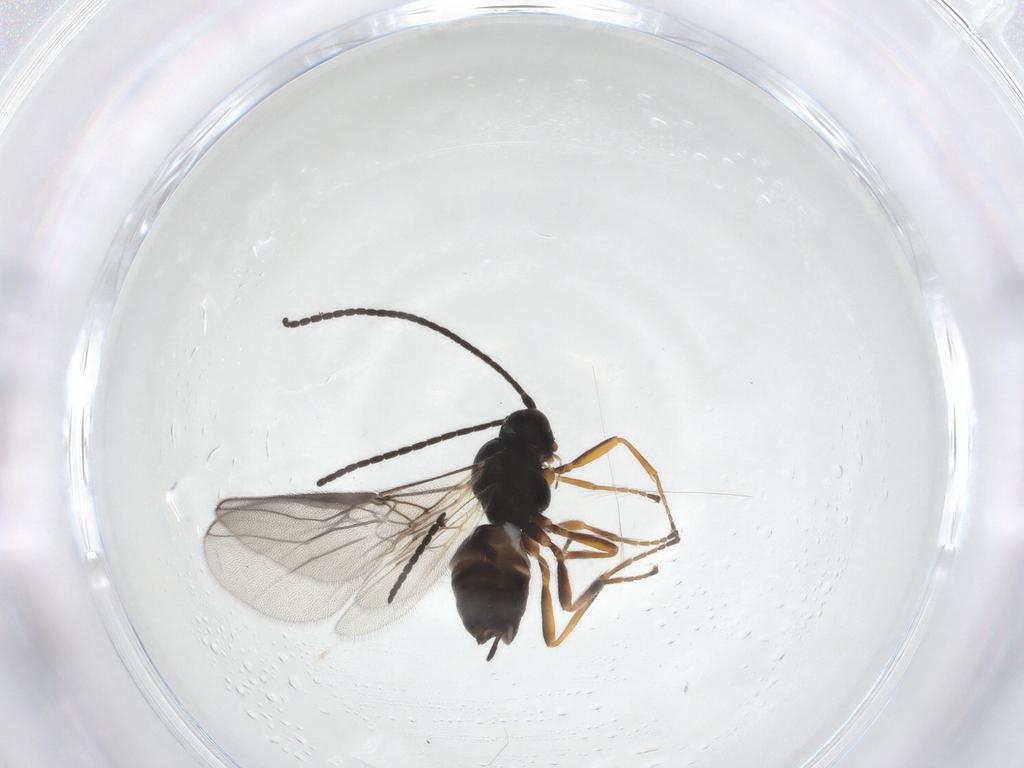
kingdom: Animalia
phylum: Arthropoda
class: Insecta
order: Hymenoptera
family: Braconidae
